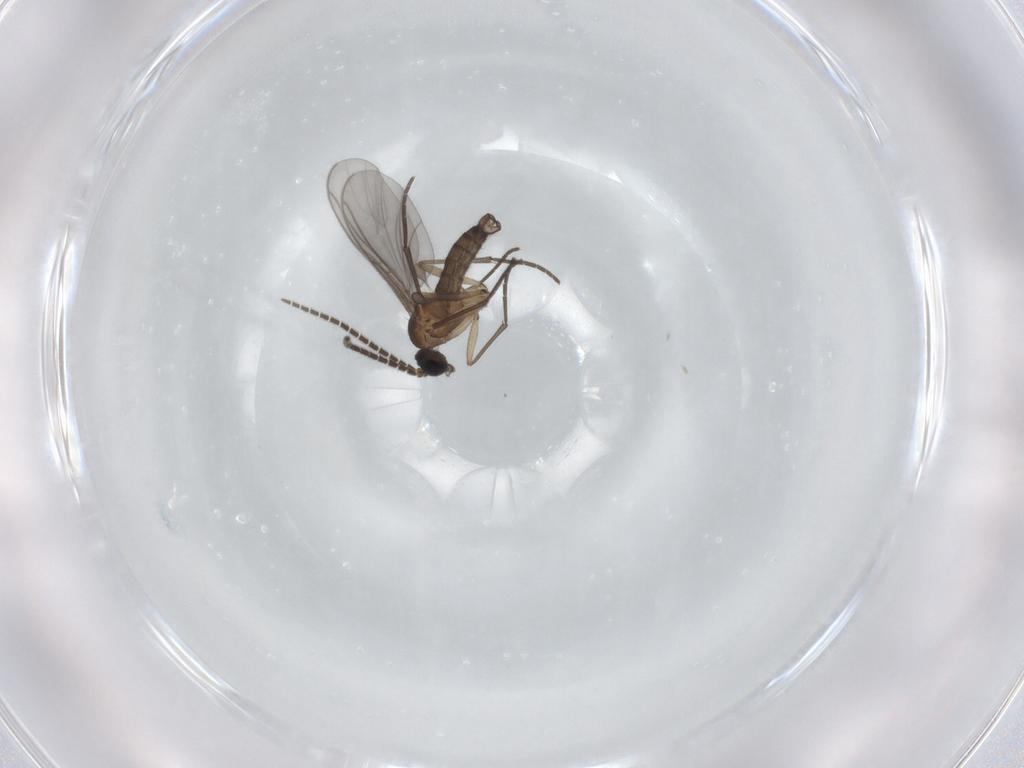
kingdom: Animalia
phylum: Arthropoda
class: Insecta
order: Diptera
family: Sciaridae
